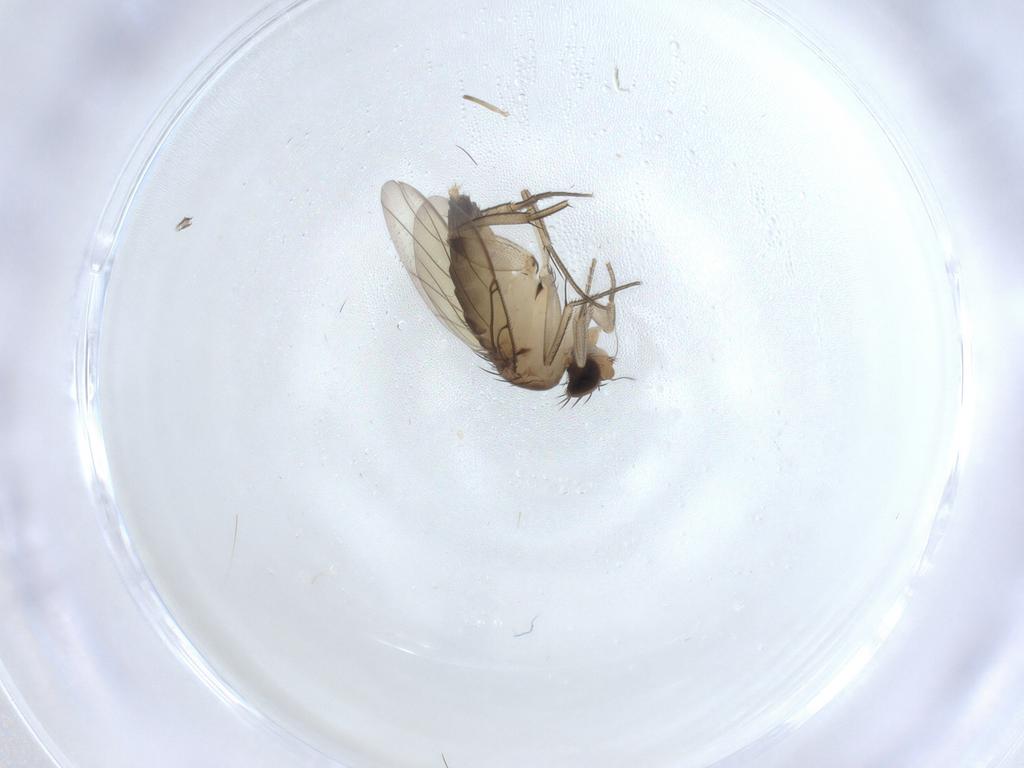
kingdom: Animalia
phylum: Arthropoda
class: Insecta
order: Diptera
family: Phoridae
